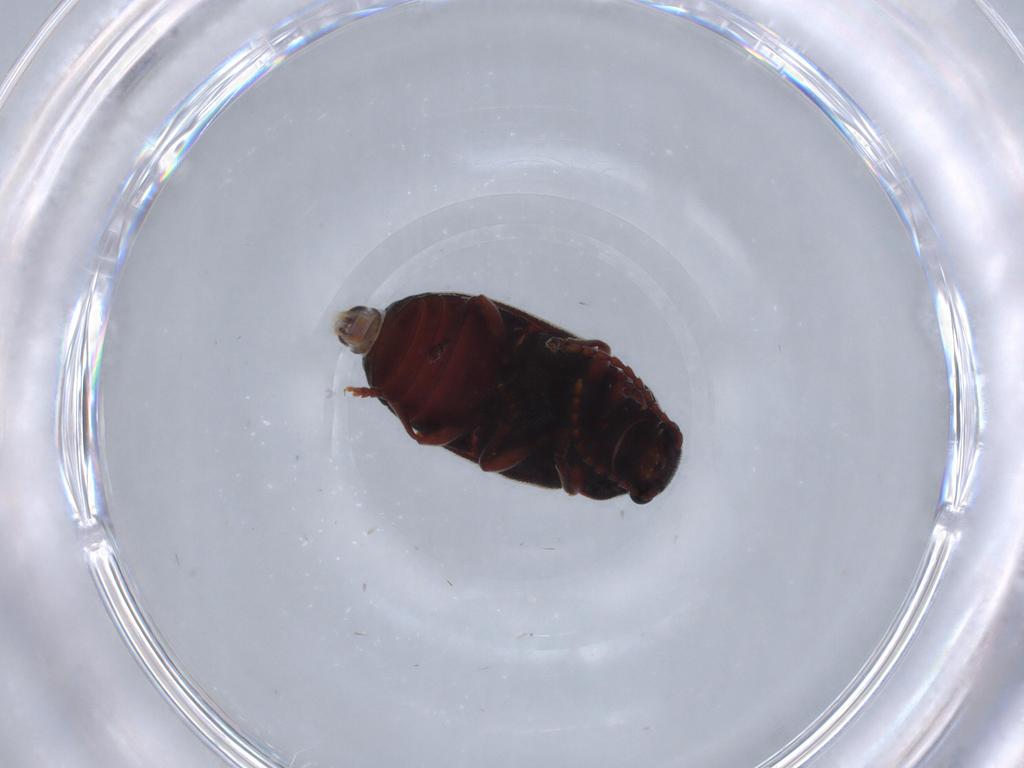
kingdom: Animalia
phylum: Arthropoda
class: Insecta
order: Coleoptera
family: Ptinidae
